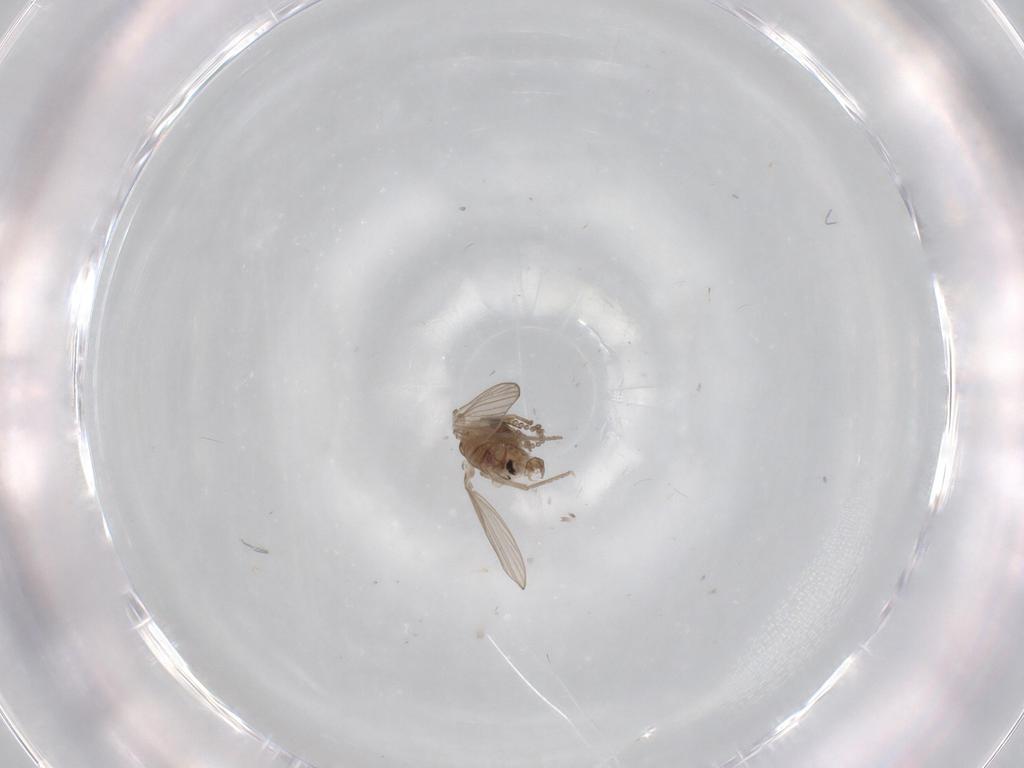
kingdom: Animalia
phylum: Arthropoda
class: Insecta
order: Diptera
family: Psychodidae
